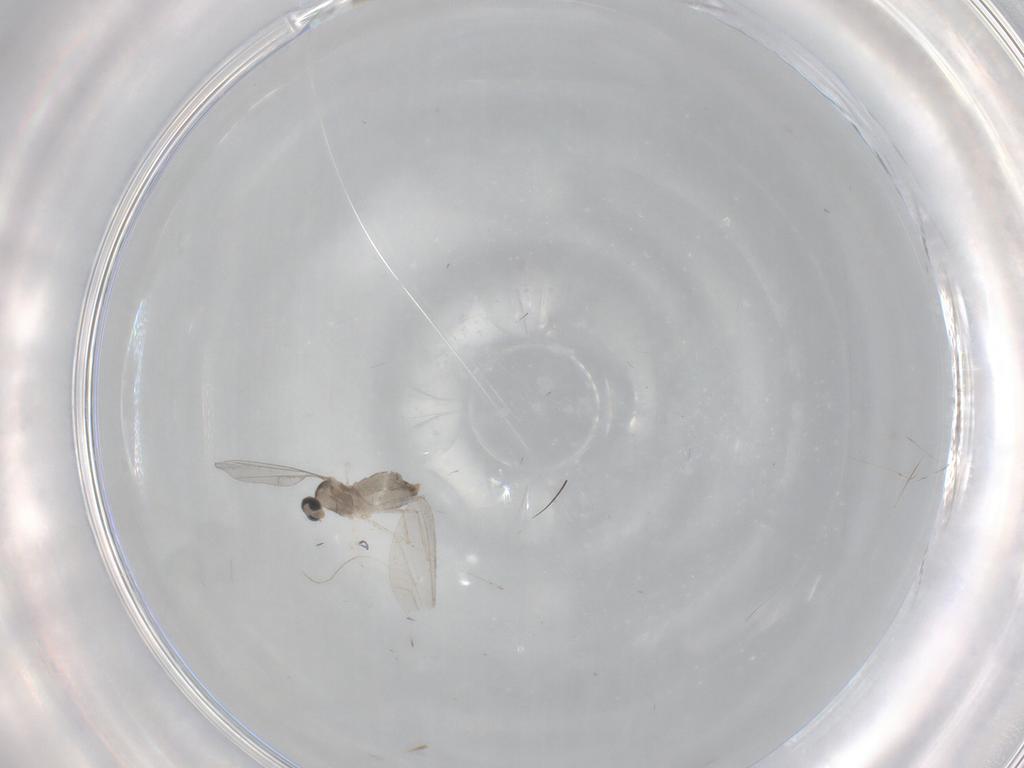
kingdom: Animalia
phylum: Arthropoda
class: Insecta
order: Diptera
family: Cecidomyiidae
